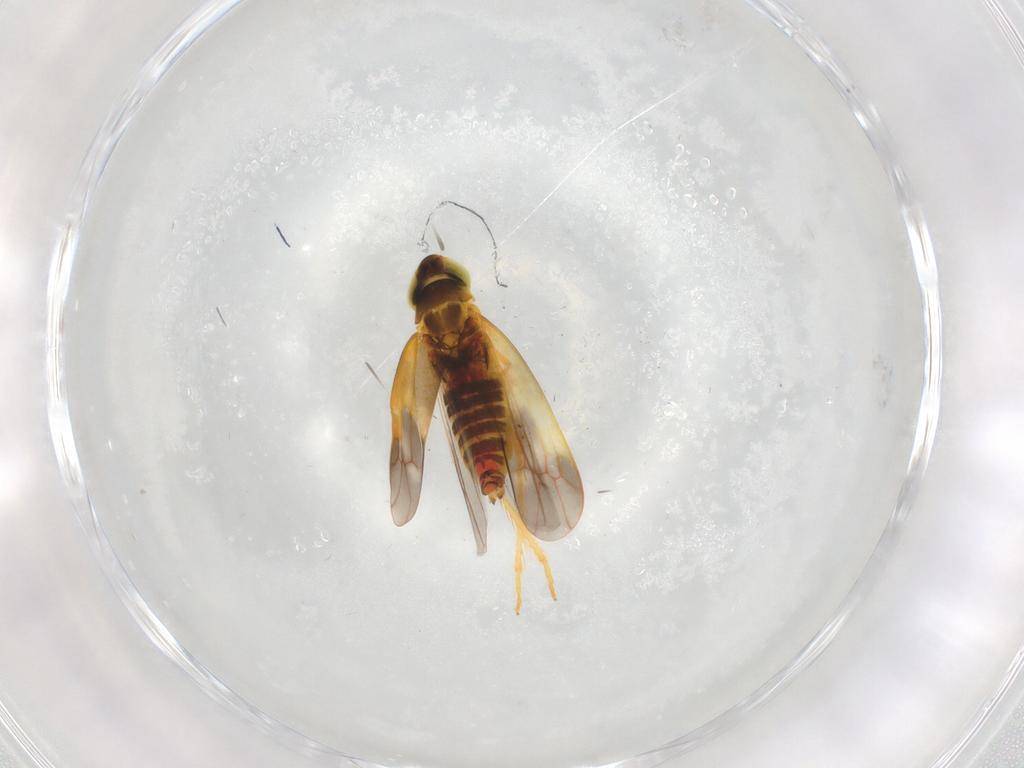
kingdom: Animalia
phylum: Arthropoda
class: Insecta
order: Hemiptera
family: Cicadellidae
